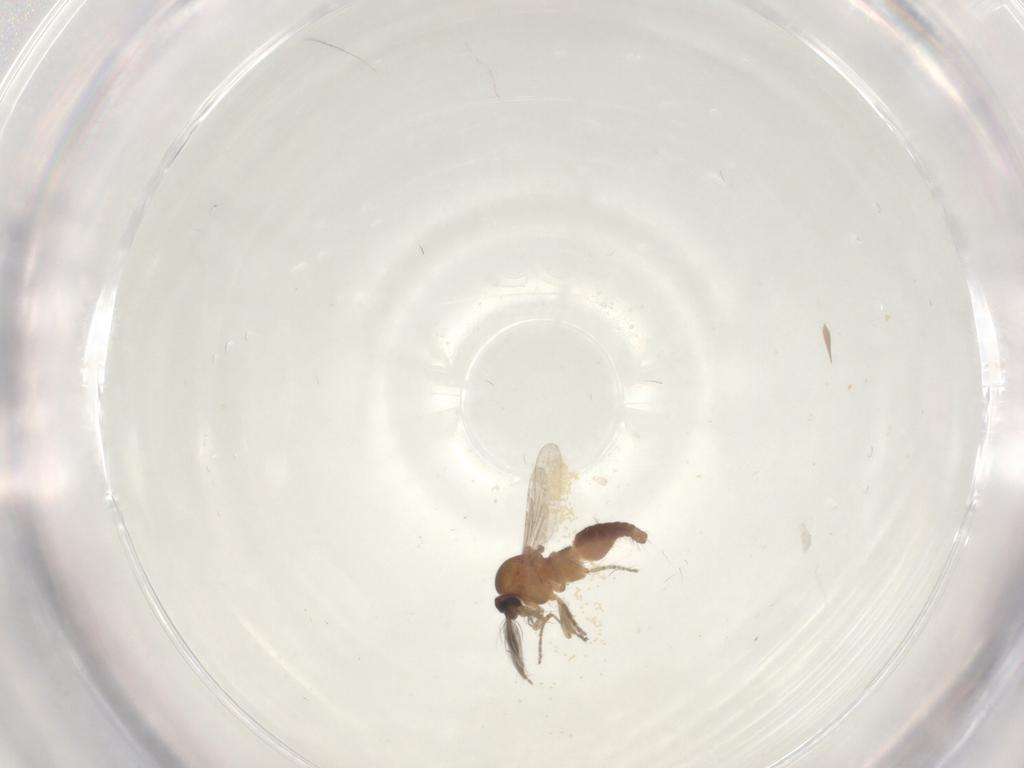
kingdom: Animalia
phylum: Arthropoda
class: Insecta
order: Diptera
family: Ceratopogonidae
